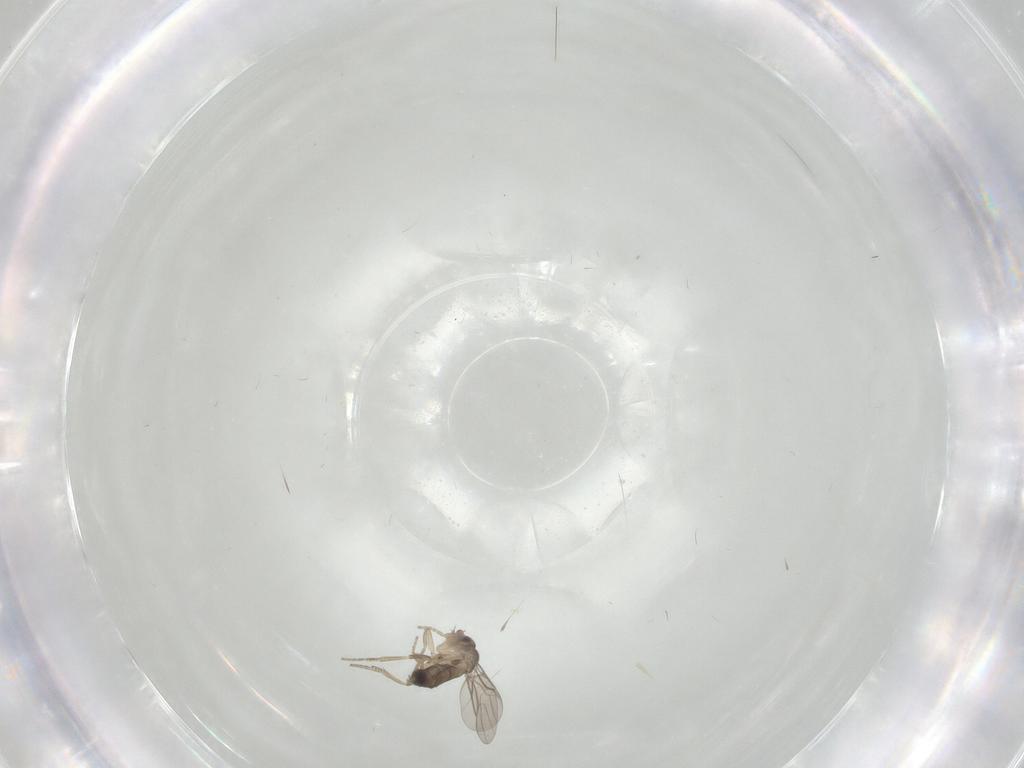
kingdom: Animalia
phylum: Arthropoda
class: Insecta
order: Diptera
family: Phoridae
